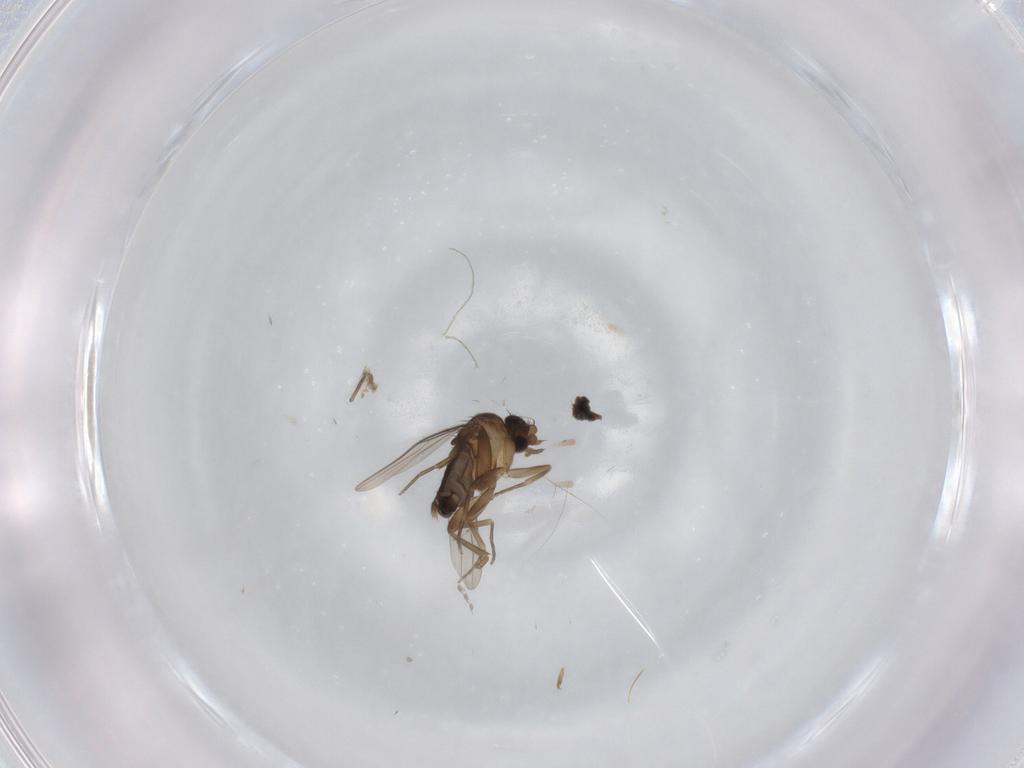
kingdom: Animalia
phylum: Arthropoda
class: Insecta
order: Diptera
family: Phoridae
